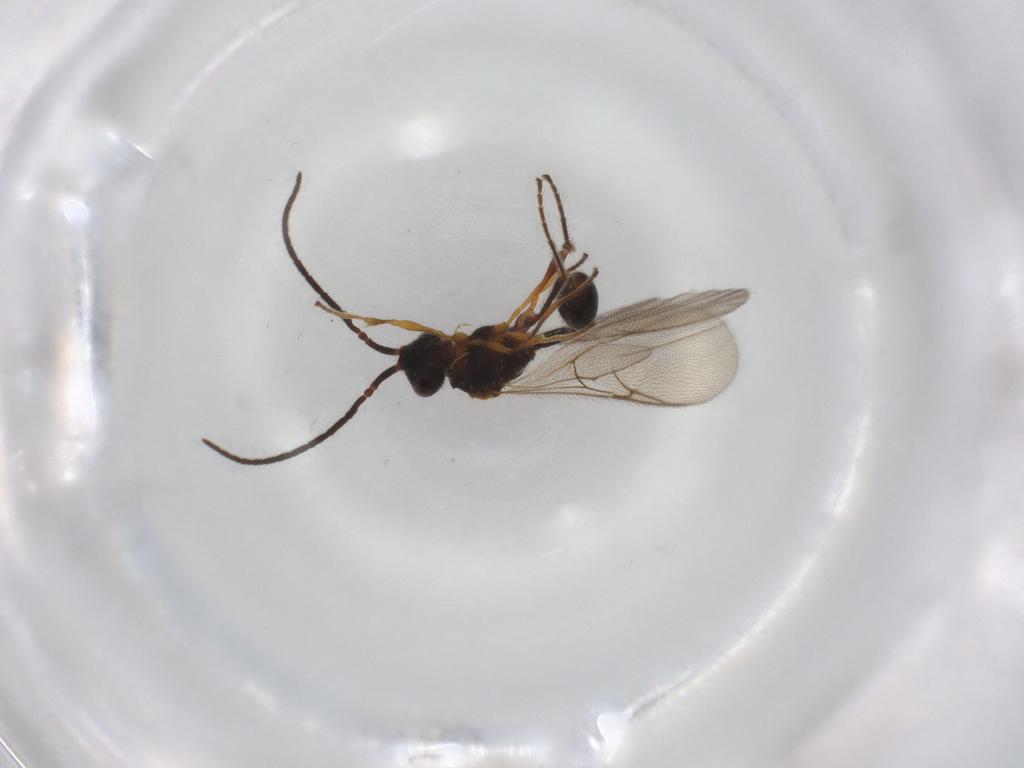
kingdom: Animalia
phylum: Arthropoda
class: Insecta
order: Hymenoptera
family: Diapriidae
